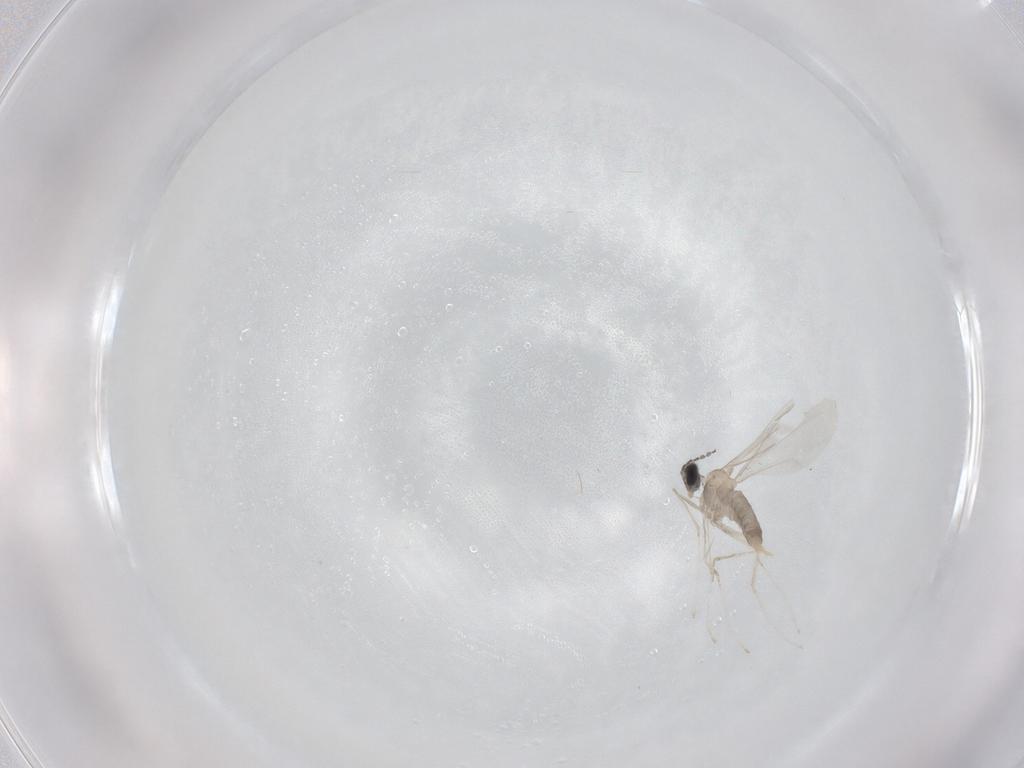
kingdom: Animalia
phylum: Arthropoda
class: Insecta
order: Diptera
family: Cecidomyiidae
